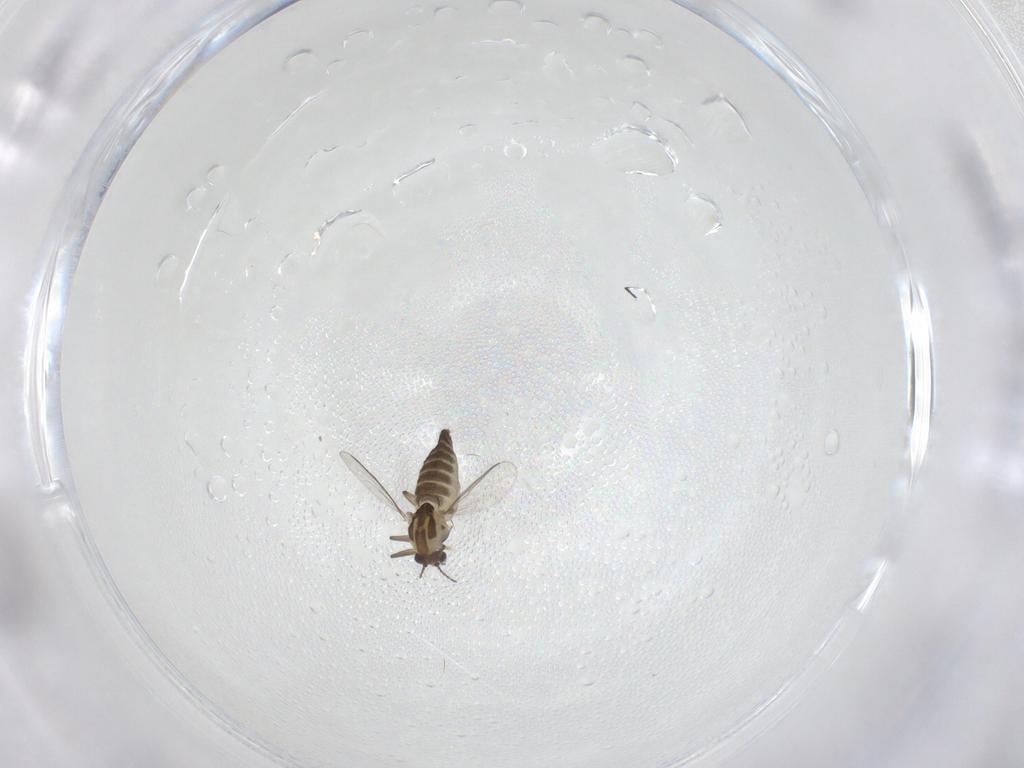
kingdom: Animalia
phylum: Arthropoda
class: Insecta
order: Diptera
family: Chironomidae
